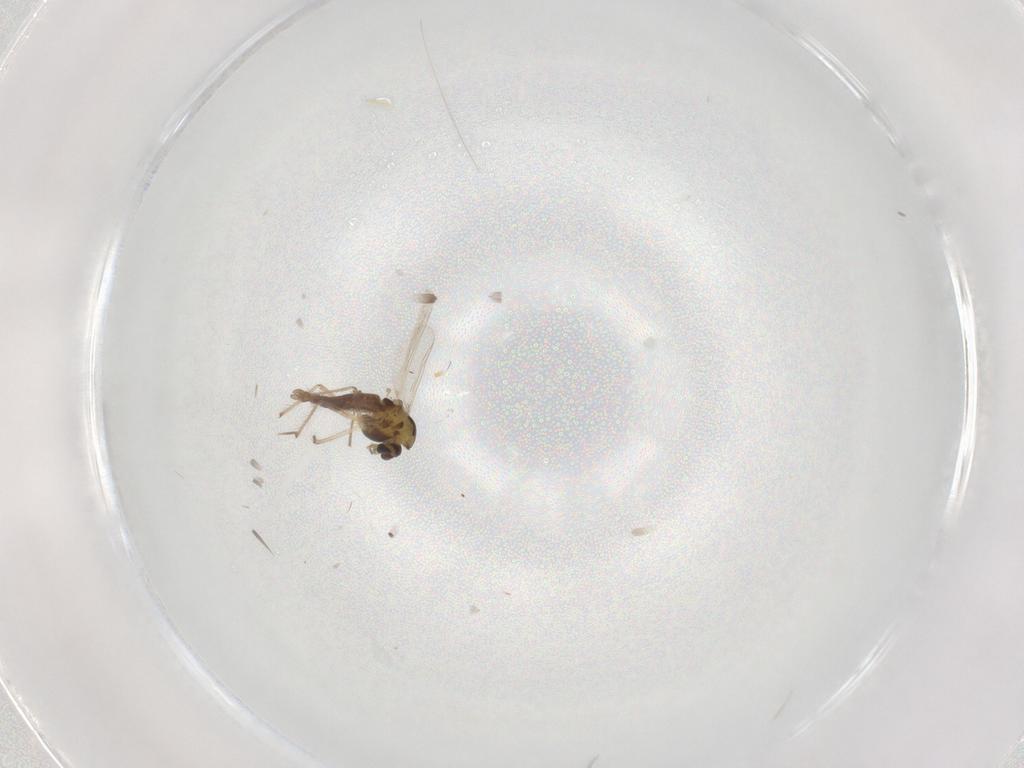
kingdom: Animalia
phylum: Arthropoda
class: Insecta
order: Diptera
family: Chironomidae
